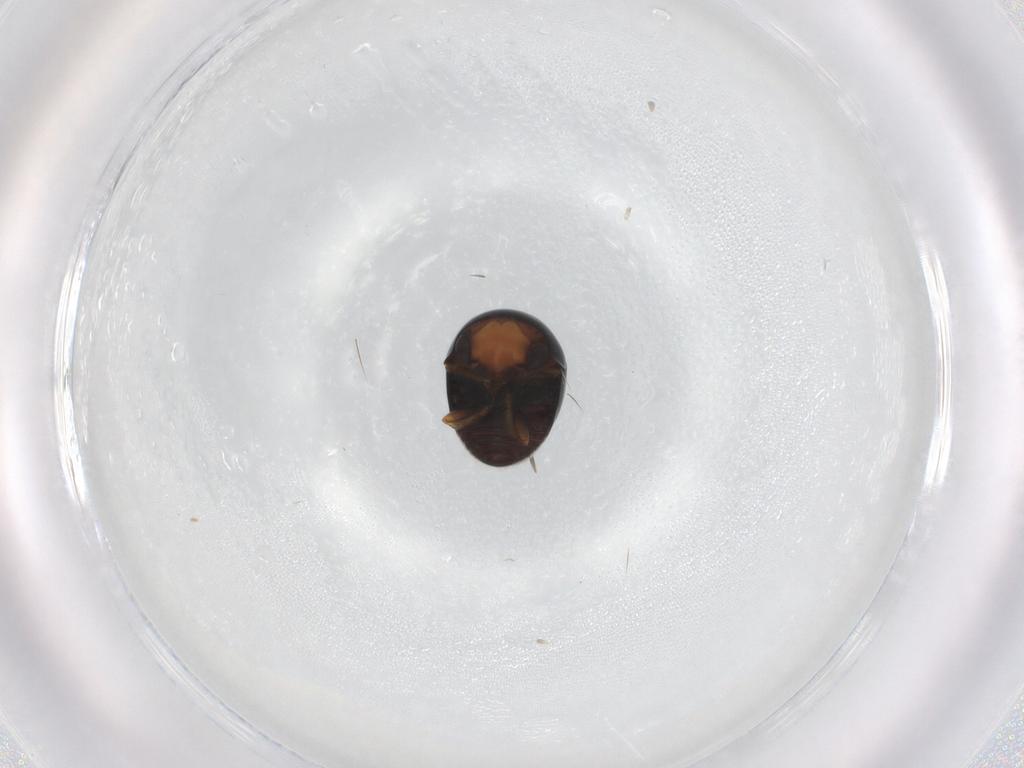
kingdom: Animalia
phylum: Arthropoda
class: Insecta
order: Coleoptera
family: Cybocephalidae
